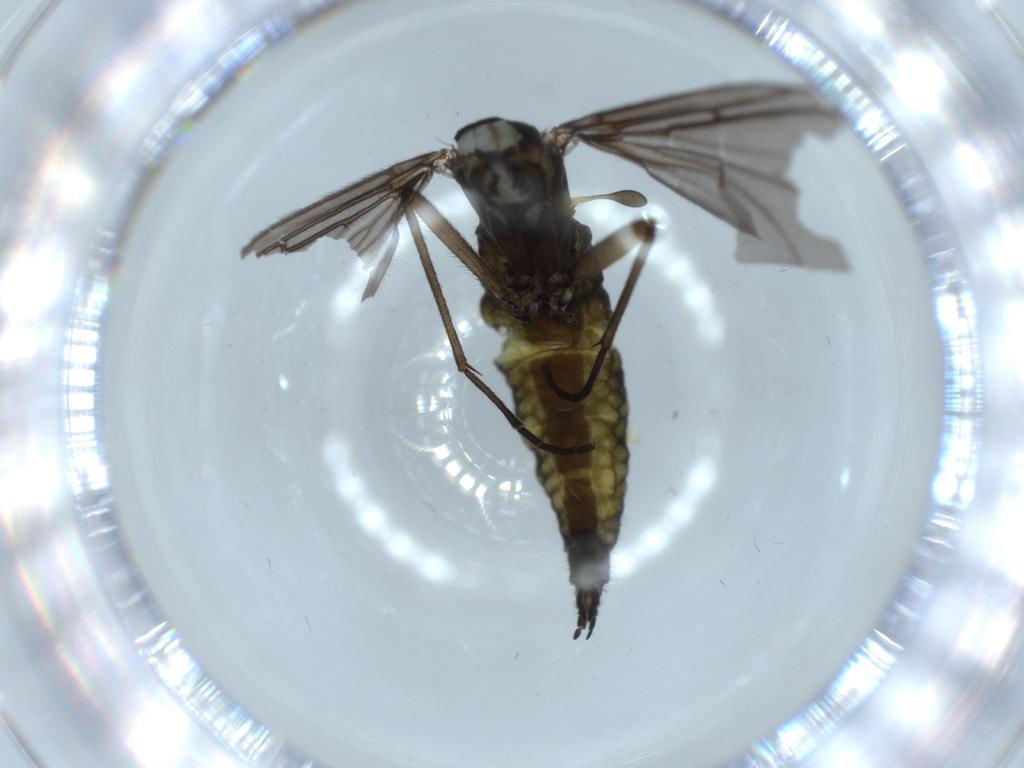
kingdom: Animalia
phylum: Arthropoda
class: Insecta
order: Diptera
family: Sciaridae
